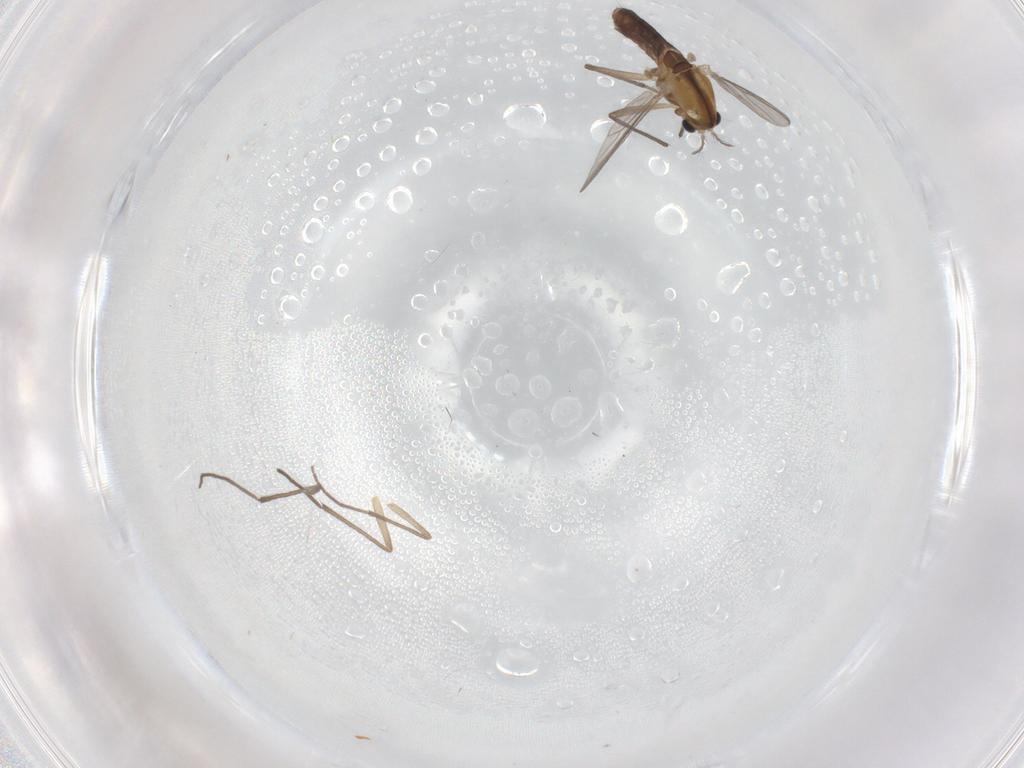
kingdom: Animalia
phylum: Arthropoda
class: Insecta
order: Diptera
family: Chironomidae
